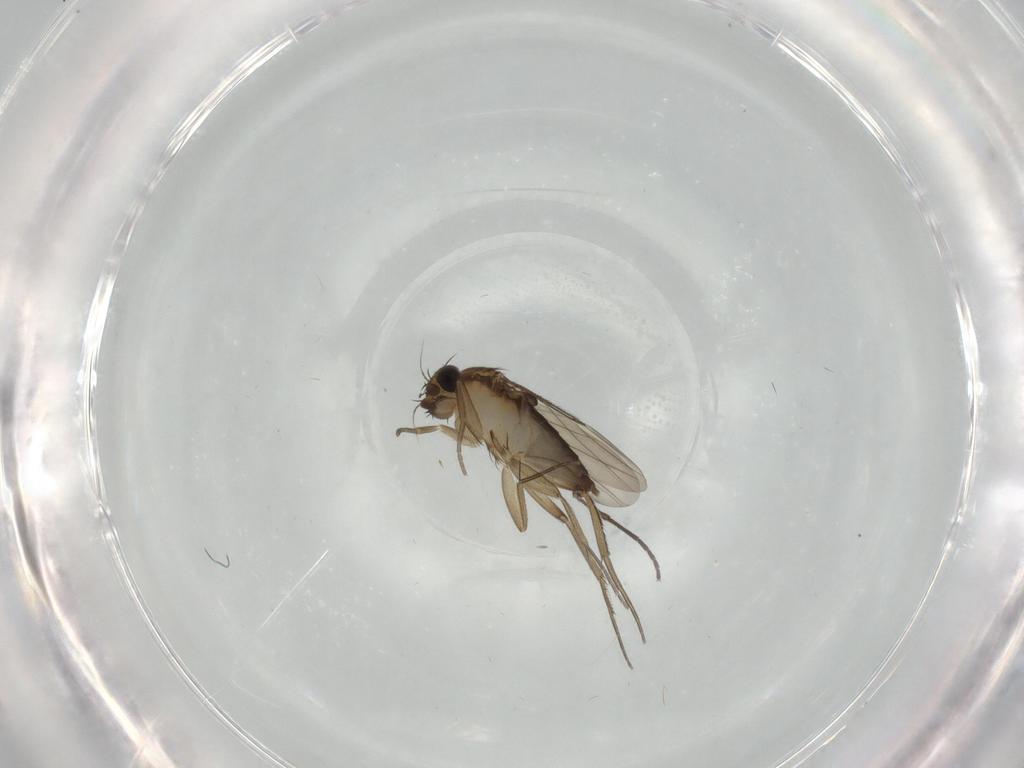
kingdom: Animalia
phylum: Arthropoda
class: Insecta
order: Diptera
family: Phoridae
